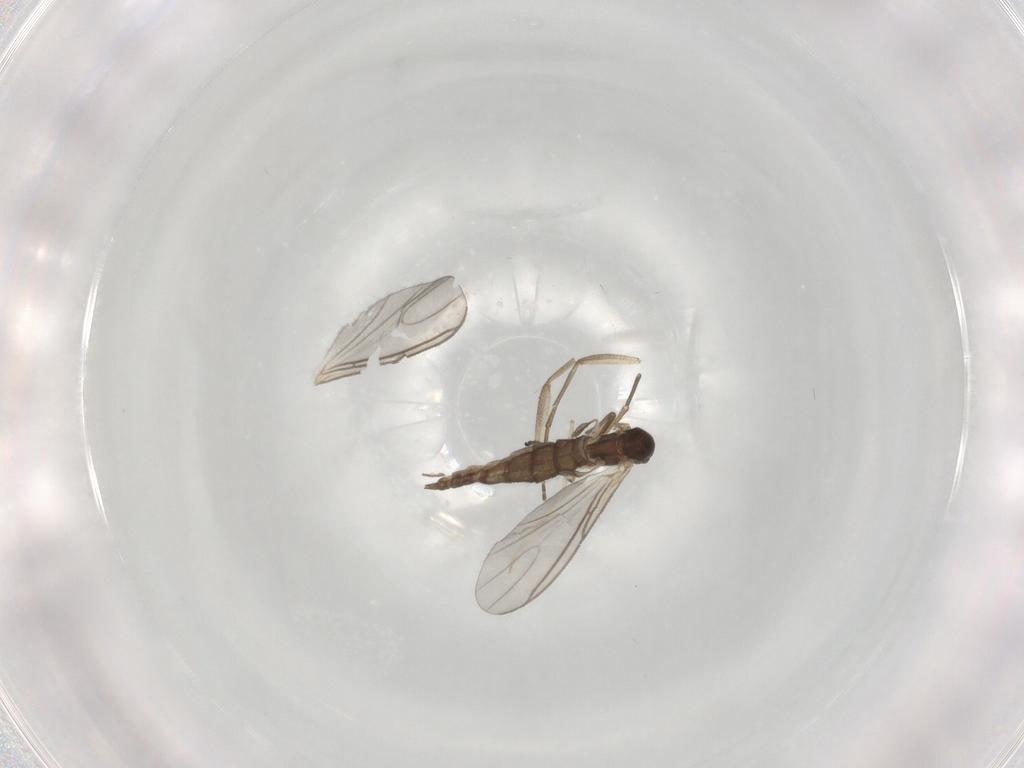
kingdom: Animalia
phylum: Arthropoda
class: Insecta
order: Diptera
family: Sciaridae
